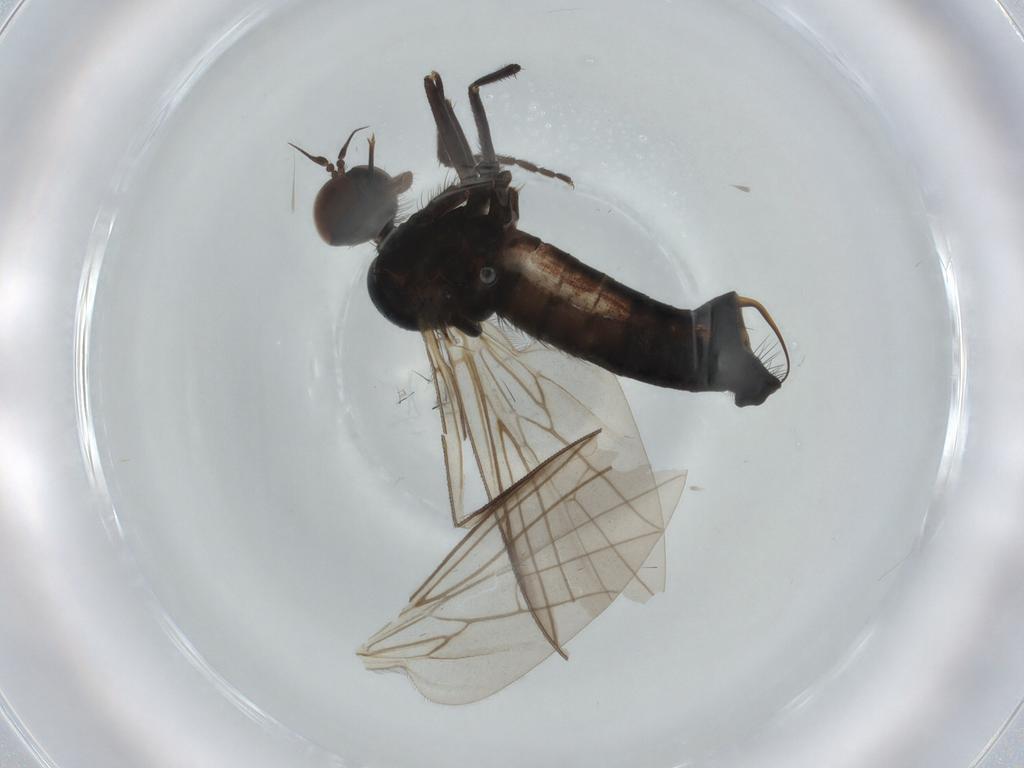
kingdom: Animalia
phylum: Arthropoda
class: Insecta
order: Diptera
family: Empididae
